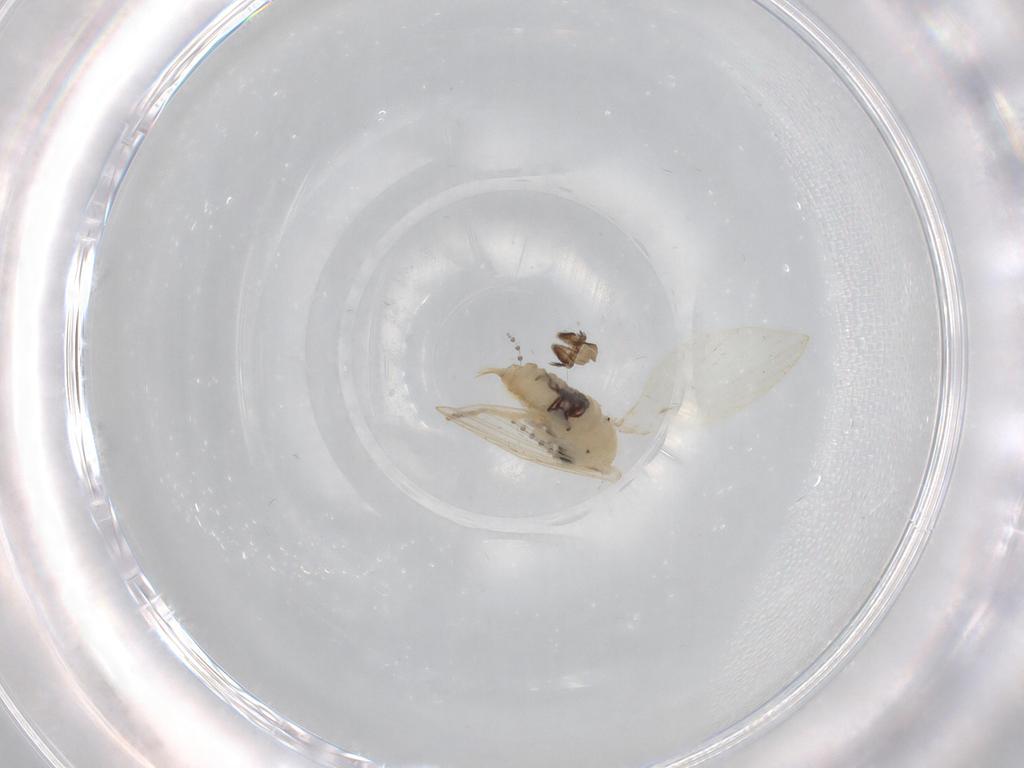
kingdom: Animalia
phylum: Arthropoda
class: Insecta
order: Diptera
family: Psychodidae
